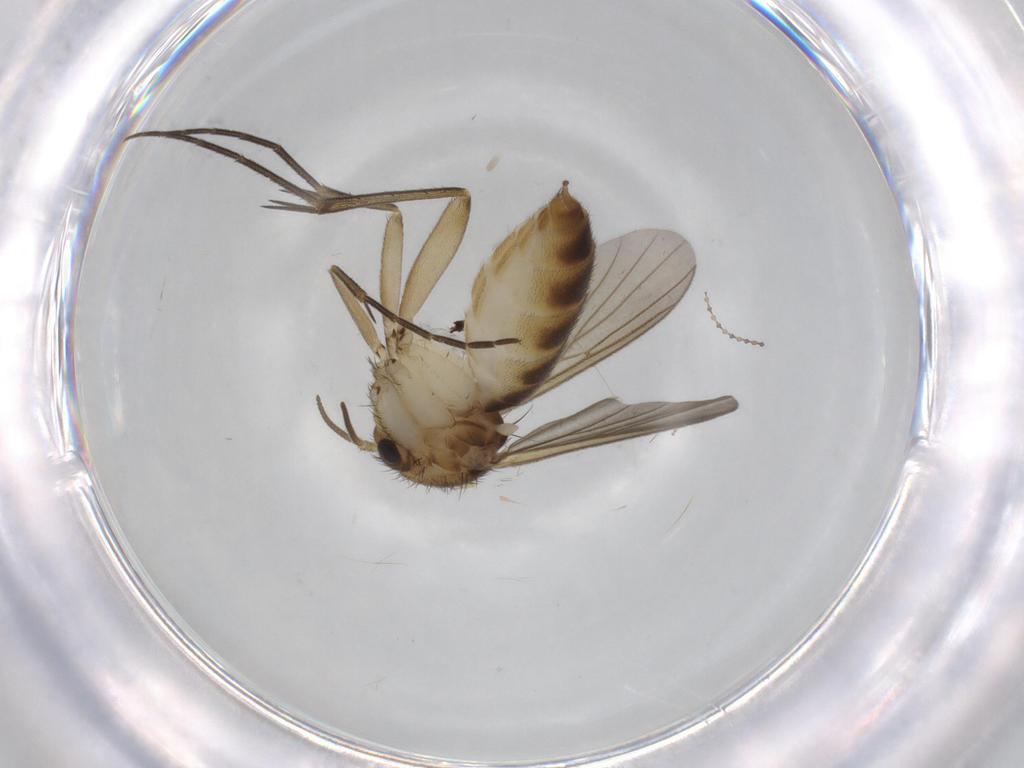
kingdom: Animalia
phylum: Arthropoda
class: Insecta
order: Diptera
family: Mycetophilidae
